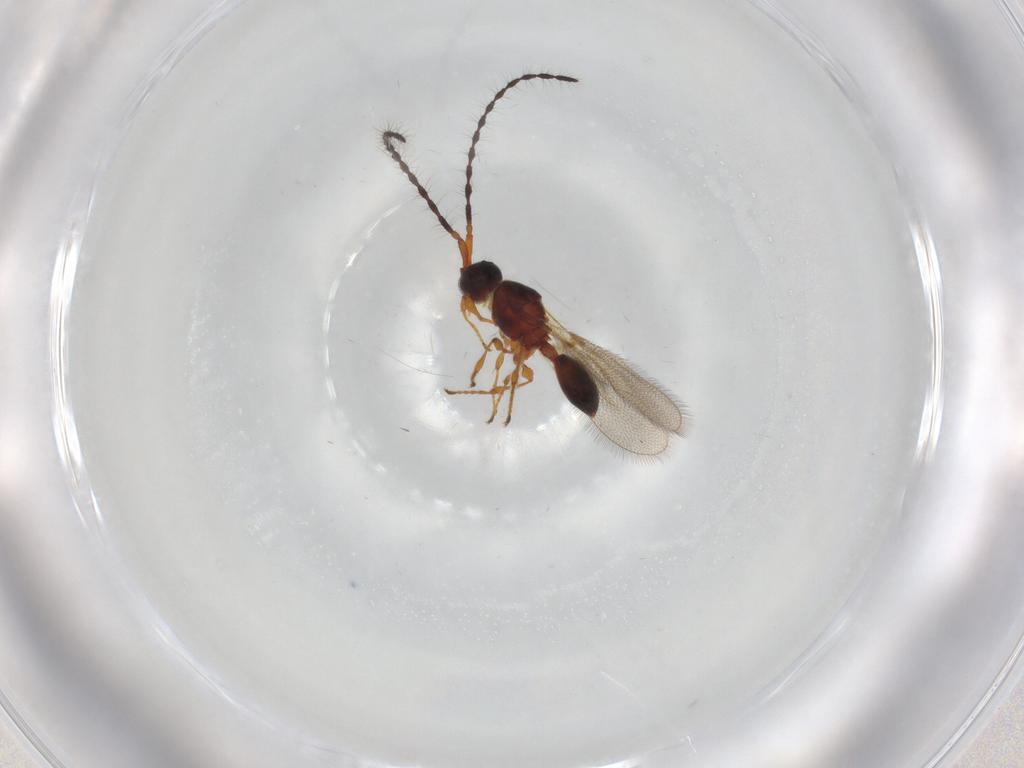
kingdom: Animalia
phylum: Arthropoda
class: Insecta
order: Hymenoptera
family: Diapriidae
